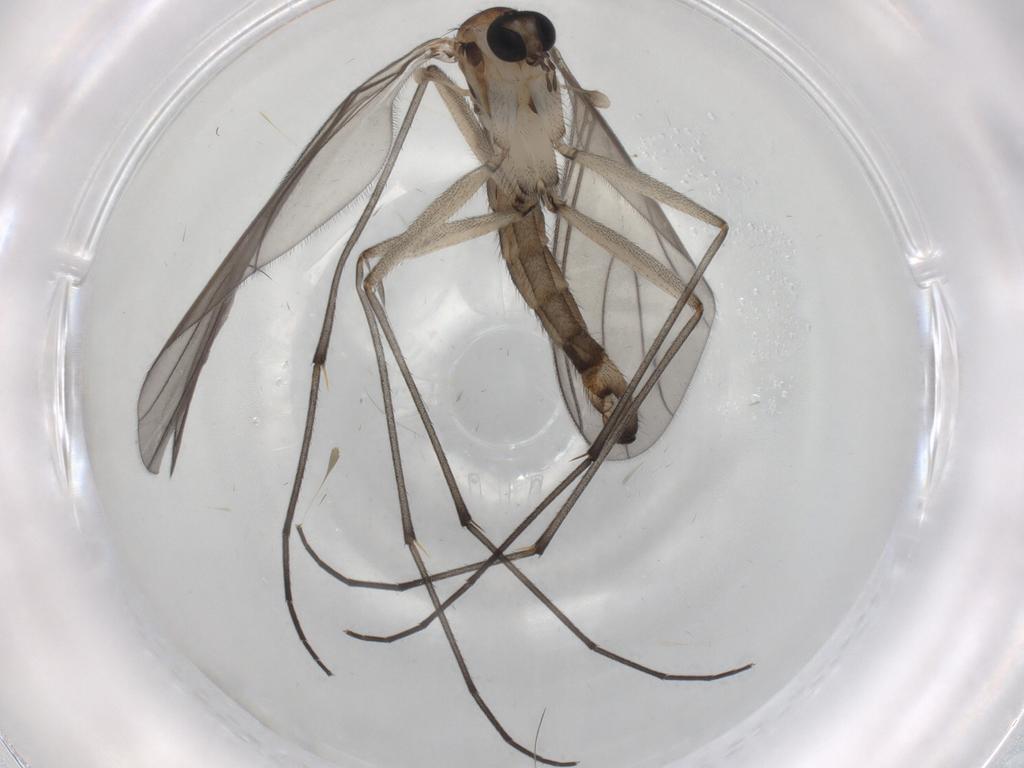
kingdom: Animalia
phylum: Arthropoda
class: Insecta
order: Diptera
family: Sciaridae
